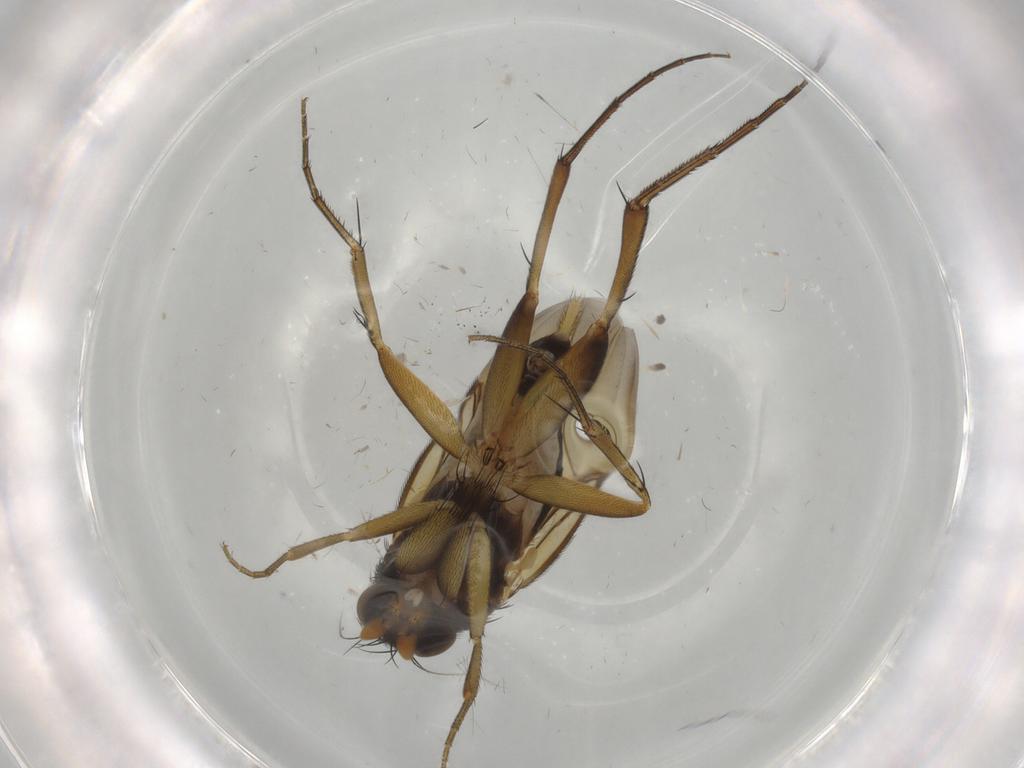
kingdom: Animalia
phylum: Arthropoda
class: Insecta
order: Diptera
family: Phoridae
